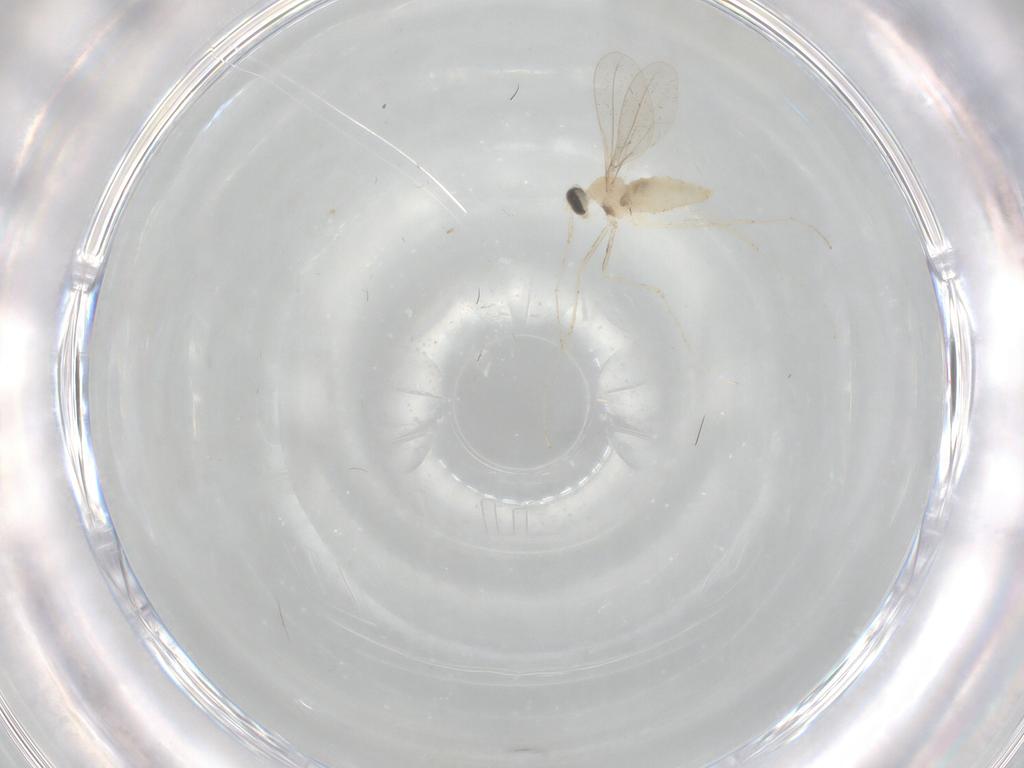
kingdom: Animalia
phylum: Arthropoda
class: Insecta
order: Diptera
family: Cecidomyiidae
